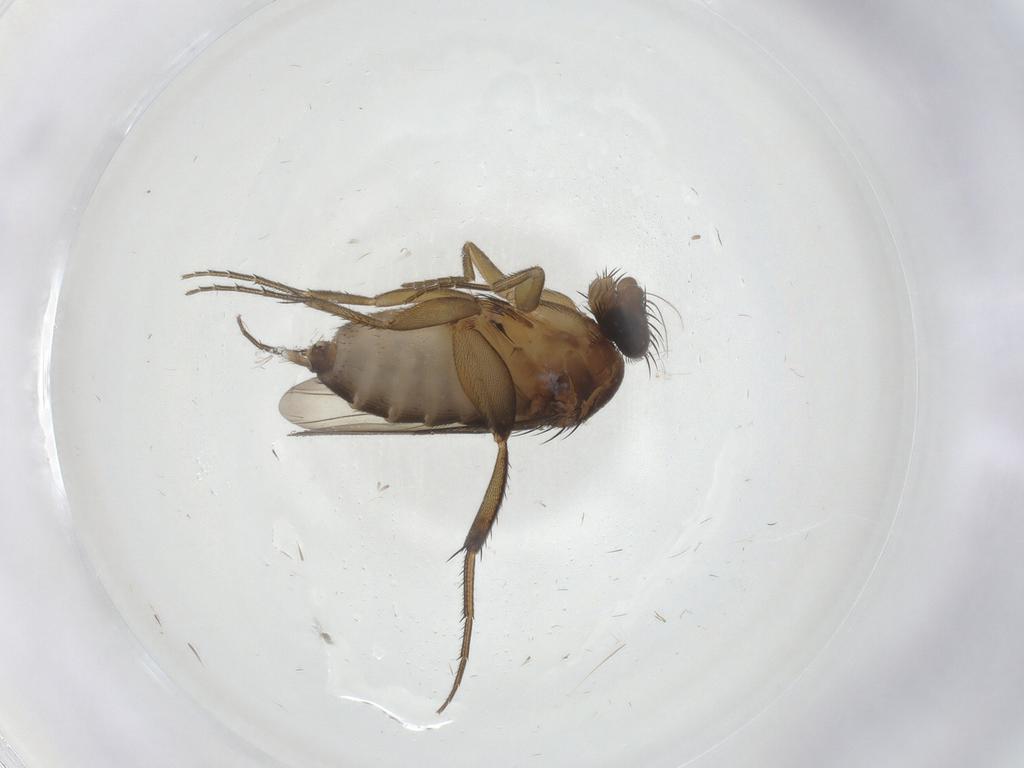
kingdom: Animalia
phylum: Arthropoda
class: Insecta
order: Diptera
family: Phoridae
